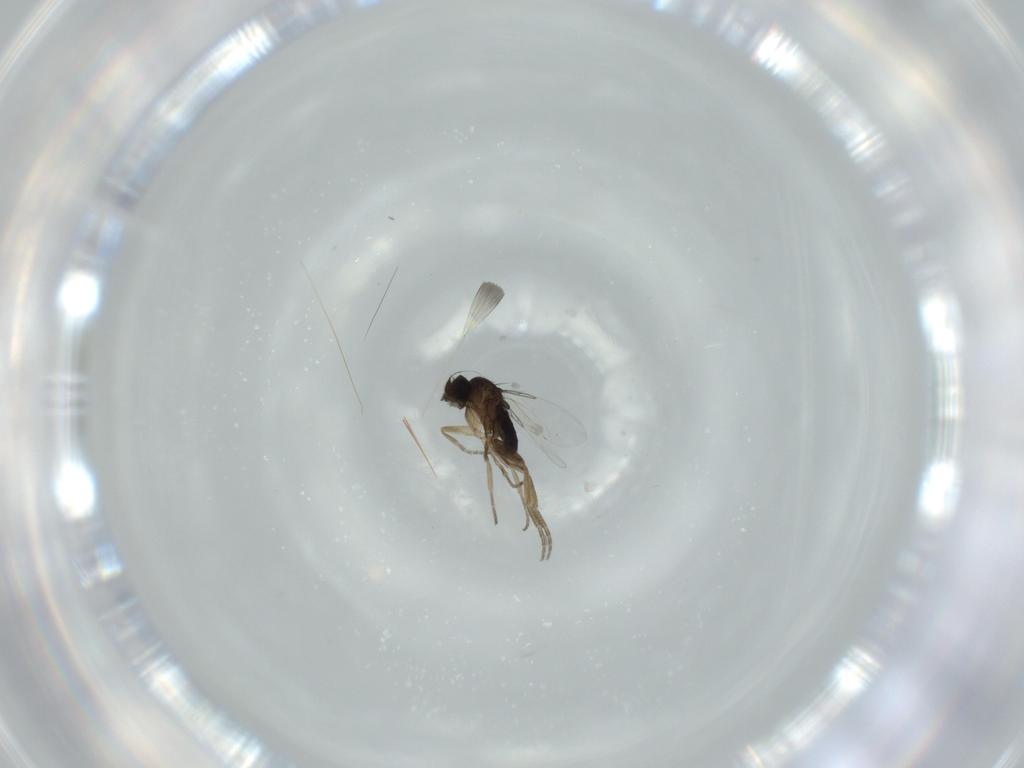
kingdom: Animalia
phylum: Arthropoda
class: Insecta
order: Diptera
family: Phoridae
